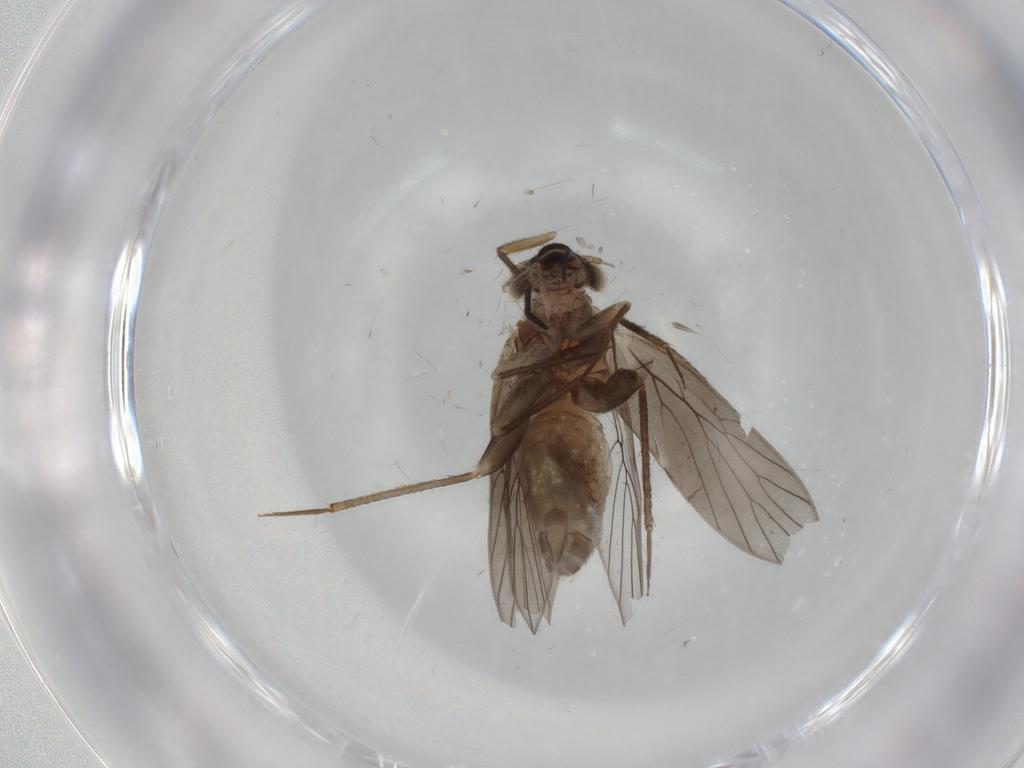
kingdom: Animalia
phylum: Arthropoda
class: Insecta
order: Psocodea
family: Lepidopsocidae
